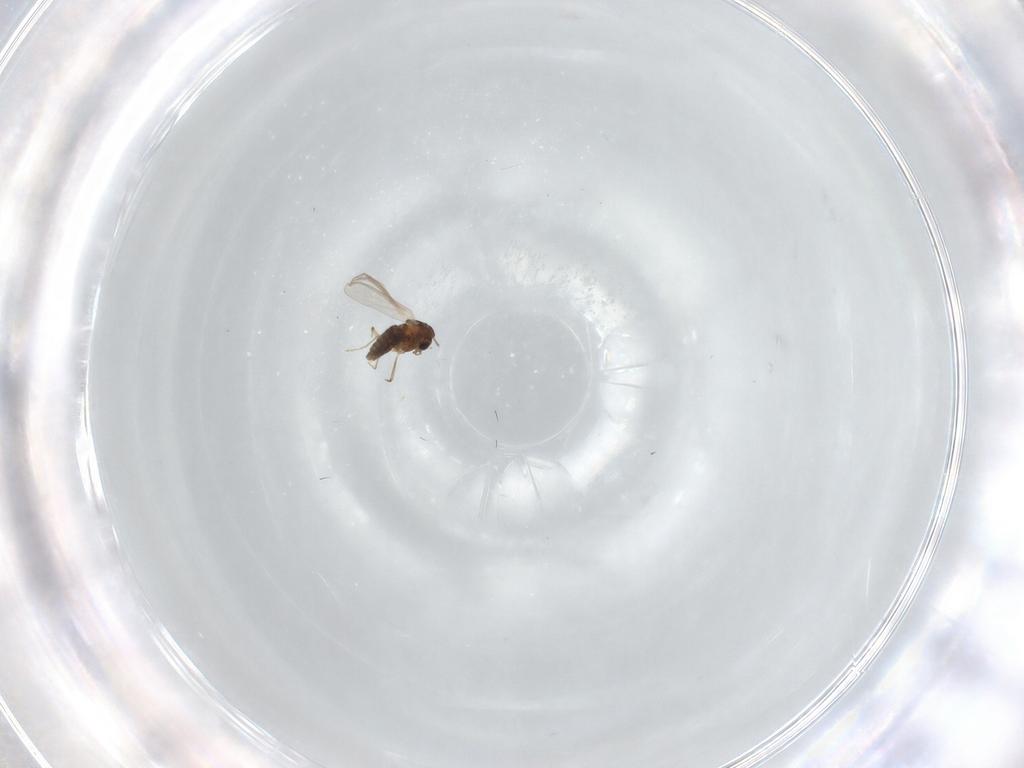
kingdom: Animalia
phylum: Arthropoda
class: Insecta
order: Diptera
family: Chironomidae
